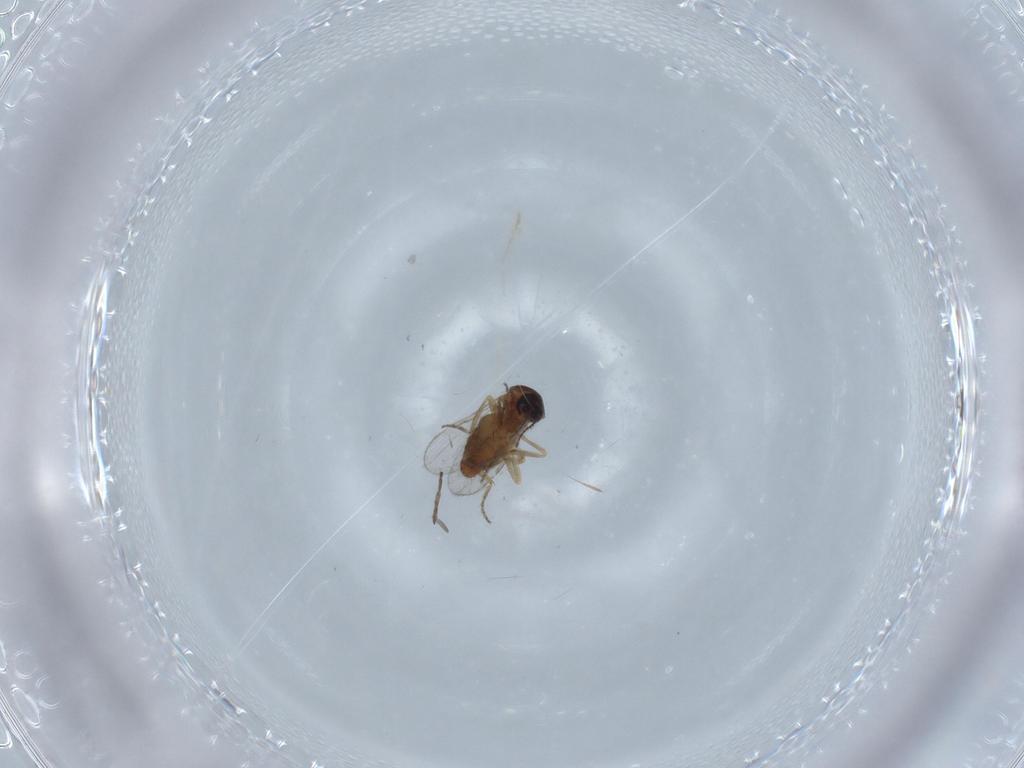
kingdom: Animalia
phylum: Arthropoda
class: Insecta
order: Diptera
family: Ceratopogonidae
